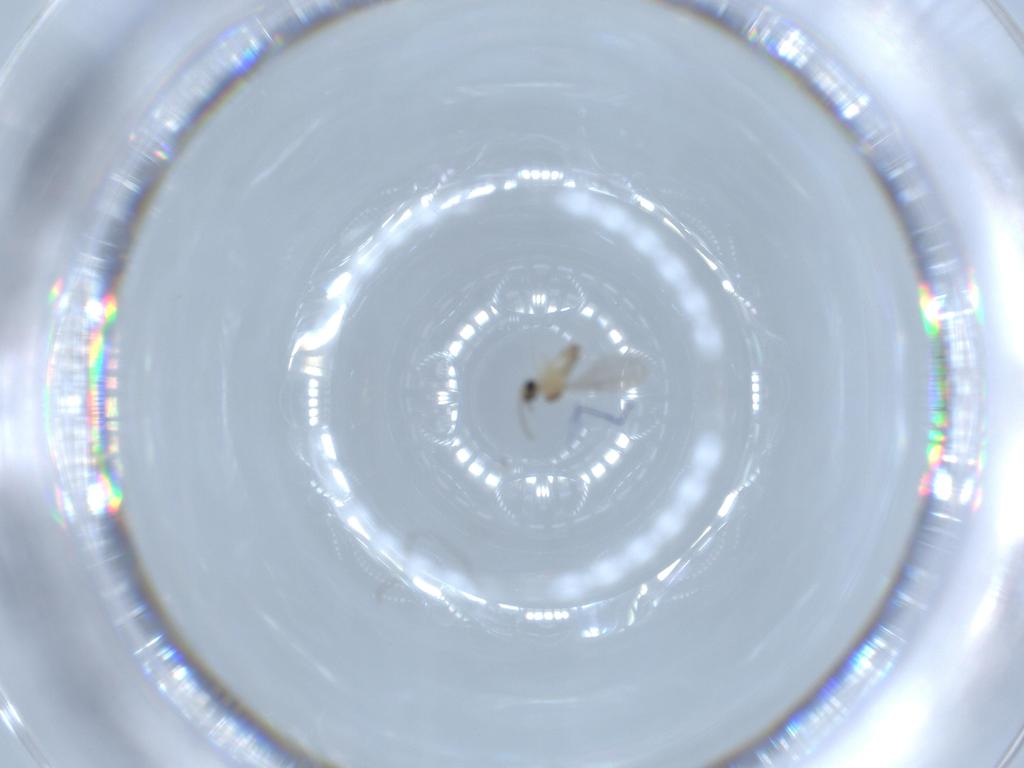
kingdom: Animalia
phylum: Arthropoda
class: Insecta
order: Diptera
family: Cecidomyiidae
